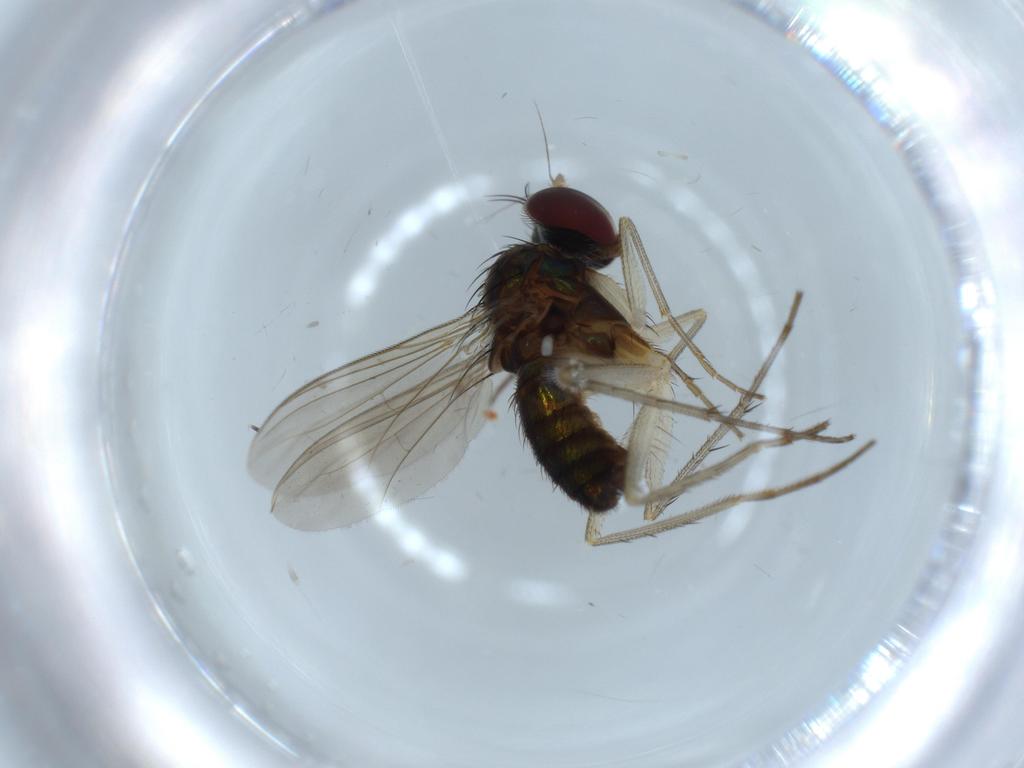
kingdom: Animalia
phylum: Arthropoda
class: Insecta
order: Diptera
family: Dolichopodidae
